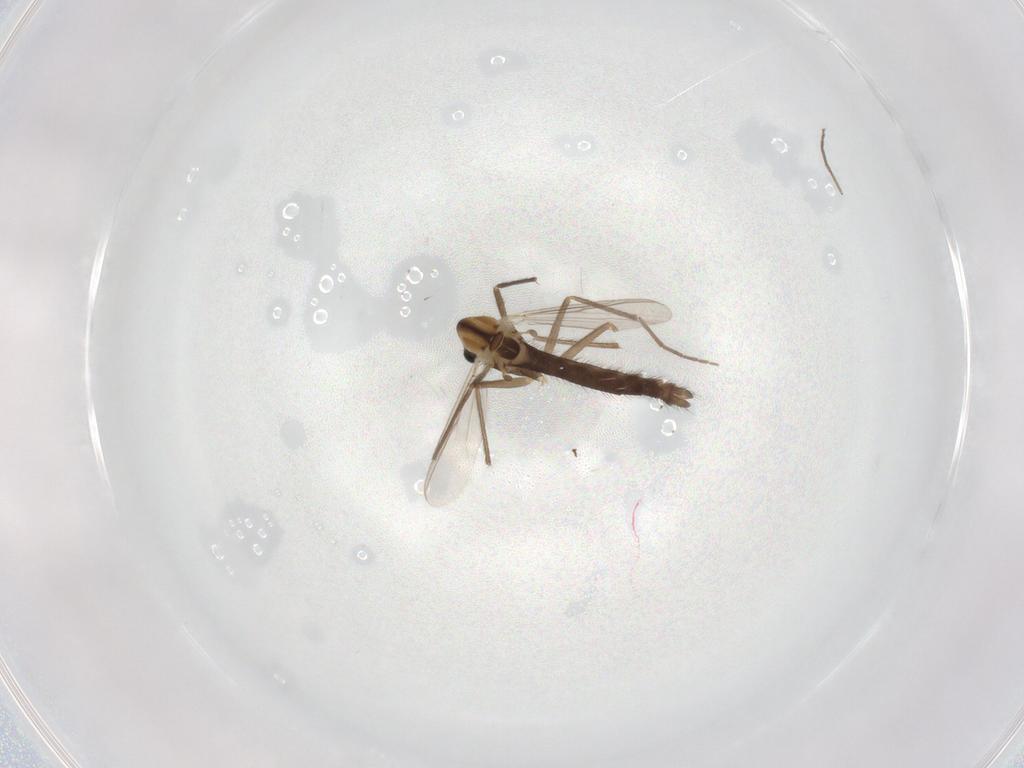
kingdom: Animalia
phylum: Arthropoda
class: Insecta
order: Diptera
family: Chironomidae
